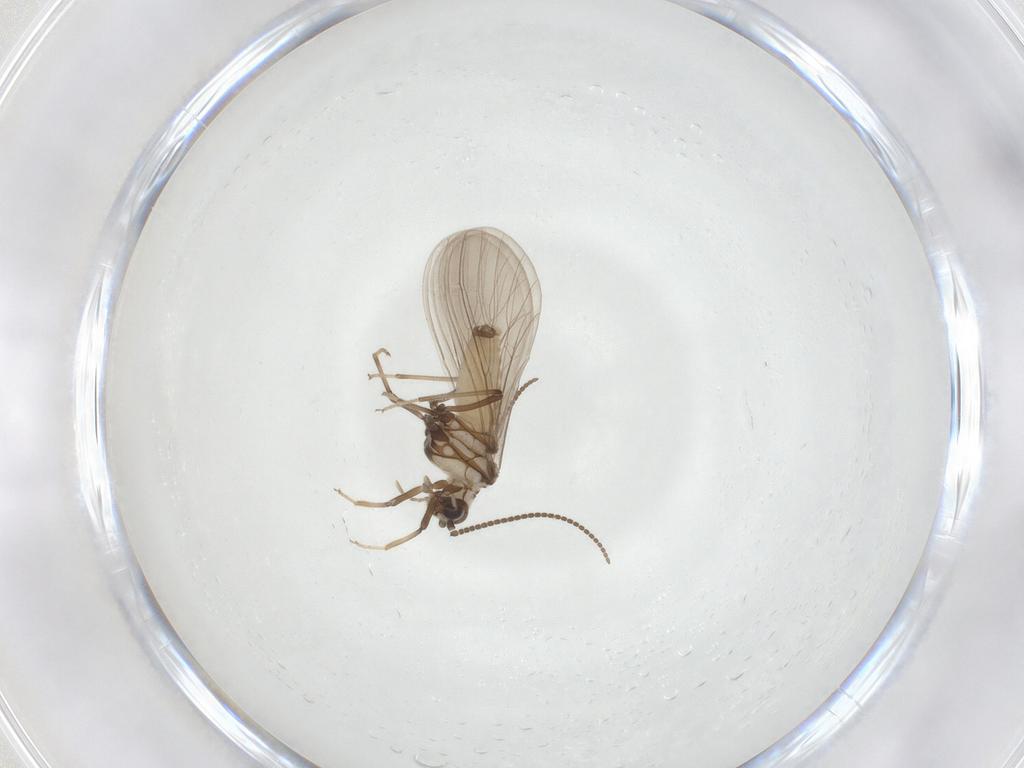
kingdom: Animalia
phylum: Arthropoda
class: Insecta
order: Neuroptera
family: Coniopterygidae
